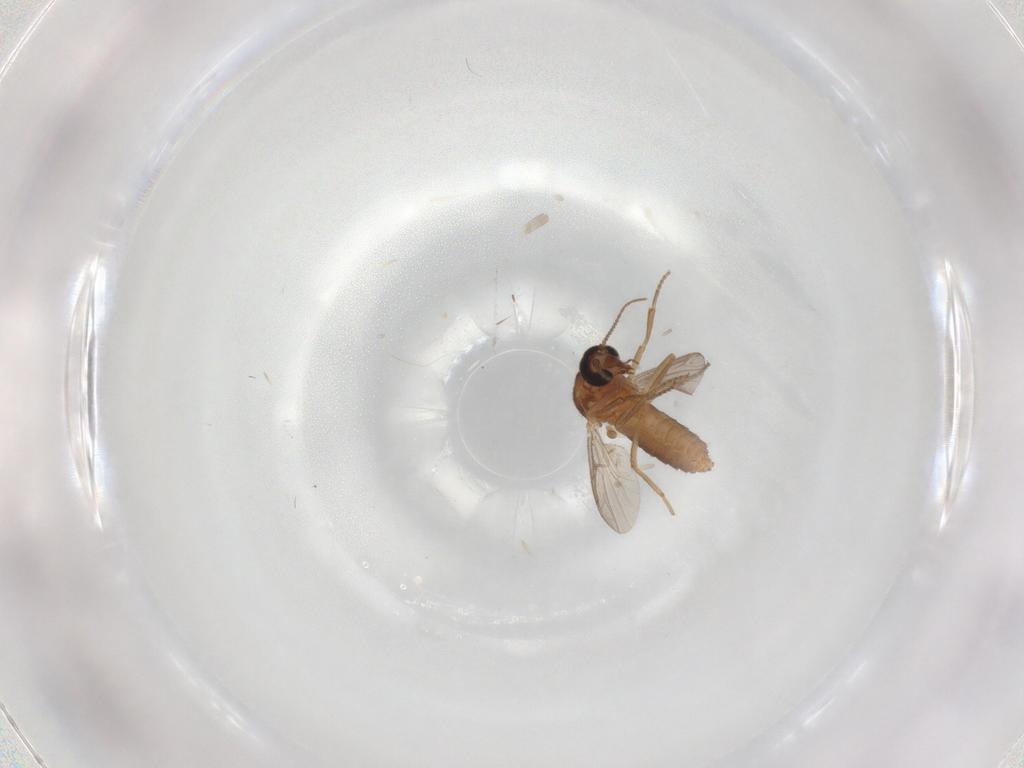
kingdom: Animalia
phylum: Arthropoda
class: Insecta
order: Diptera
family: Ceratopogonidae
